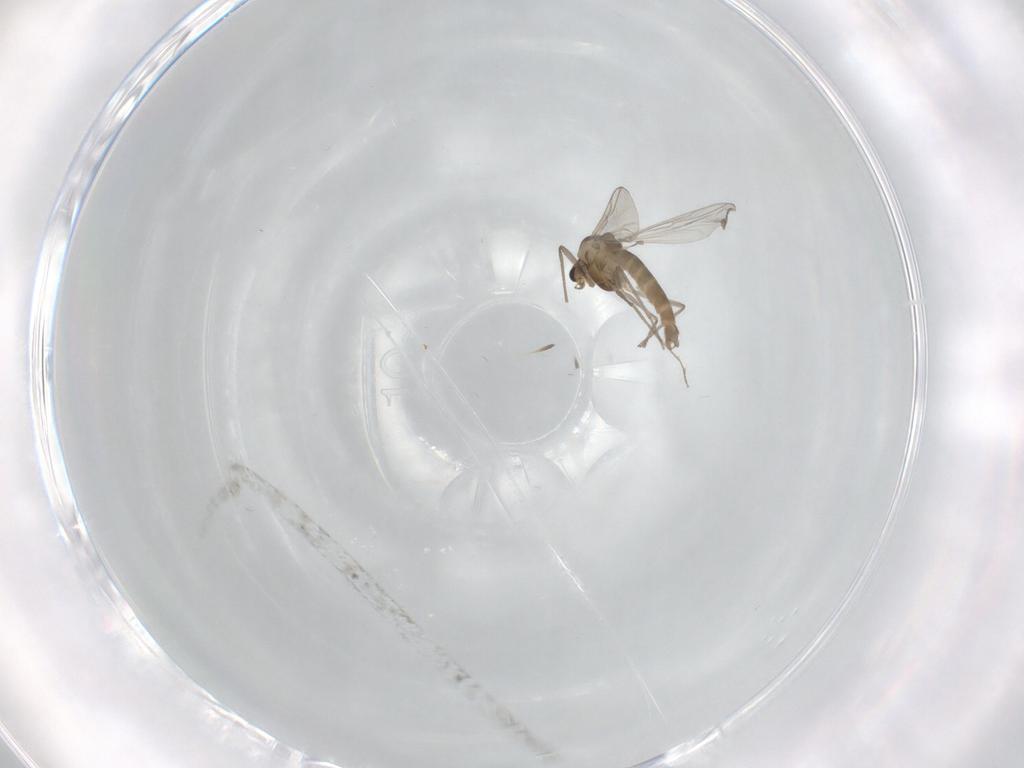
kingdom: Animalia
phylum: Arthropoda
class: Insecta
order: Diptera
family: Chironomidae
